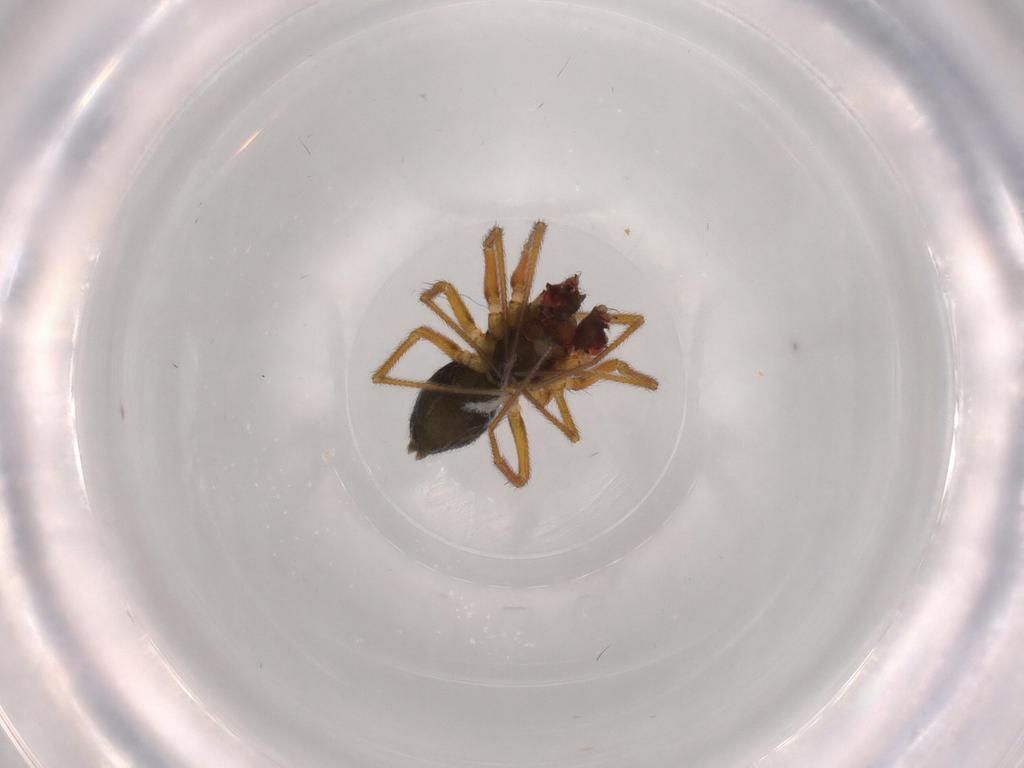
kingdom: Animalia
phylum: Arthropoda
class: Arachnida
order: Araneae
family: Linyphiidae
